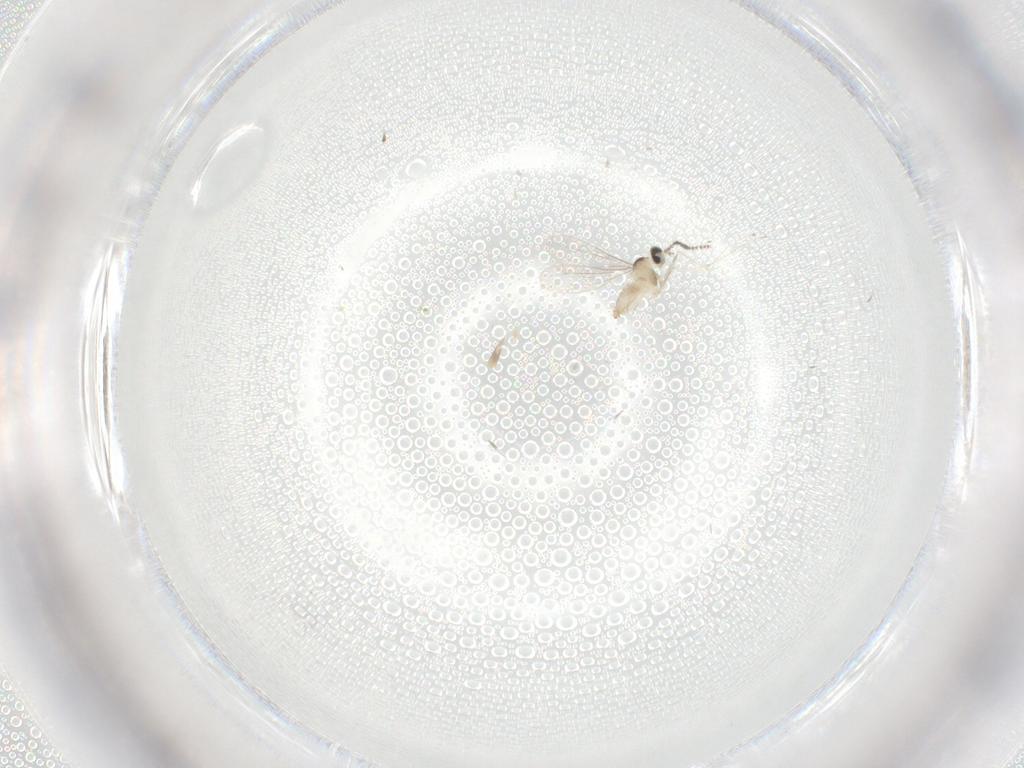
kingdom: Animalia
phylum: Arthropoda
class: Insecta
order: Diptera
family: Cecidomyiidae
